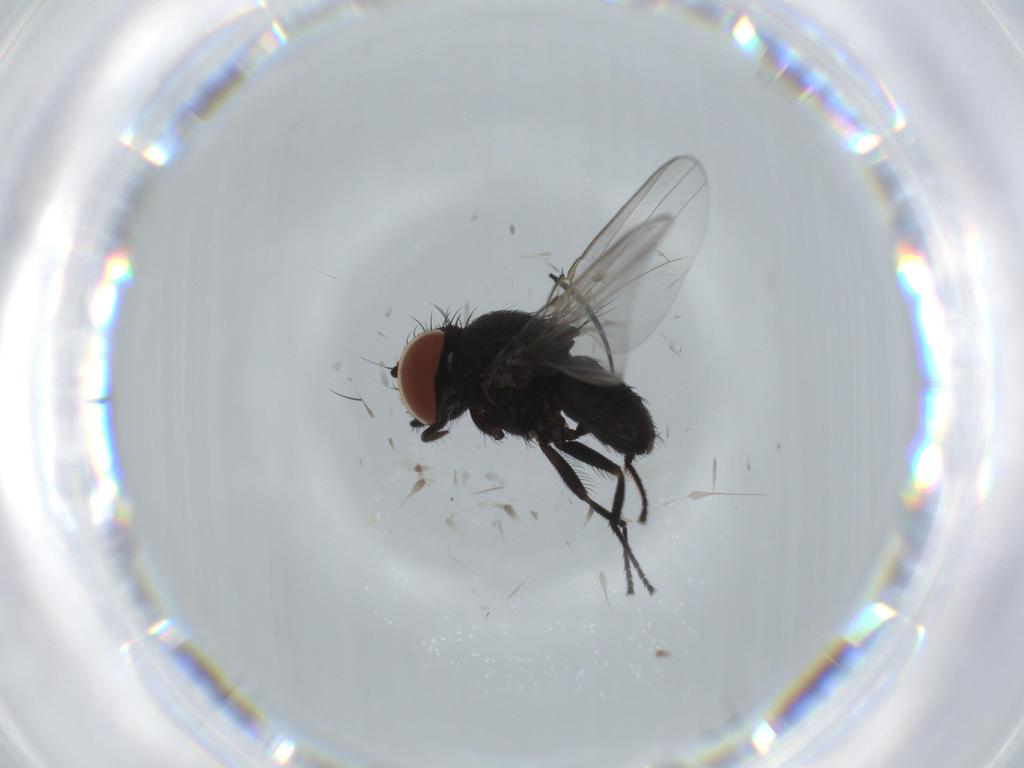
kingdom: Animalia
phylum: Arthropoda
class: Insecta
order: Diptera
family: Milichiidae
